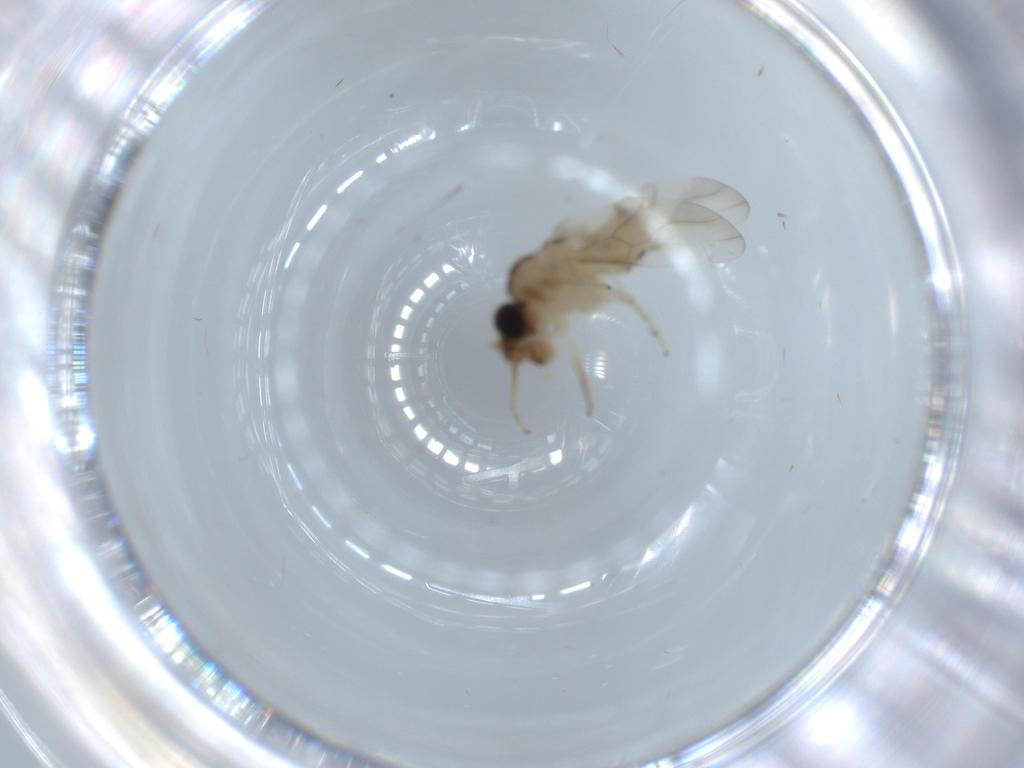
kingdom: Animalia
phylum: Arthropoda
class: Insecta
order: Psocodea
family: Caeciliusidae
